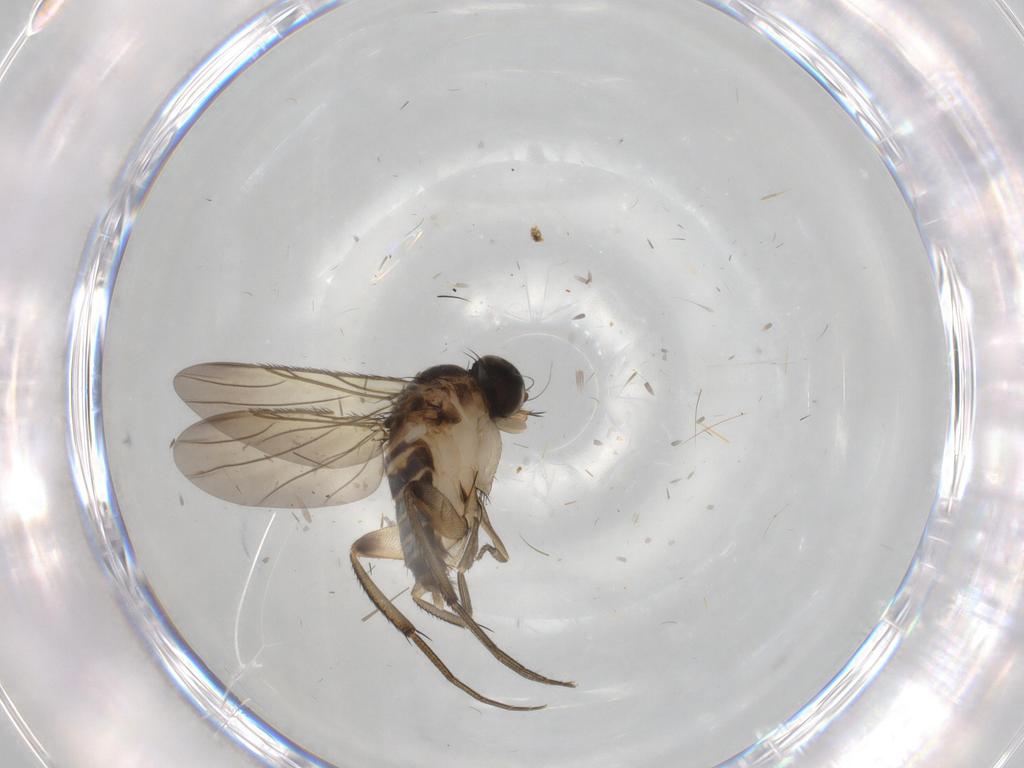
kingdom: Animalia
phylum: Arthropoda
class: Insecta
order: Diptera
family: Phoridae
